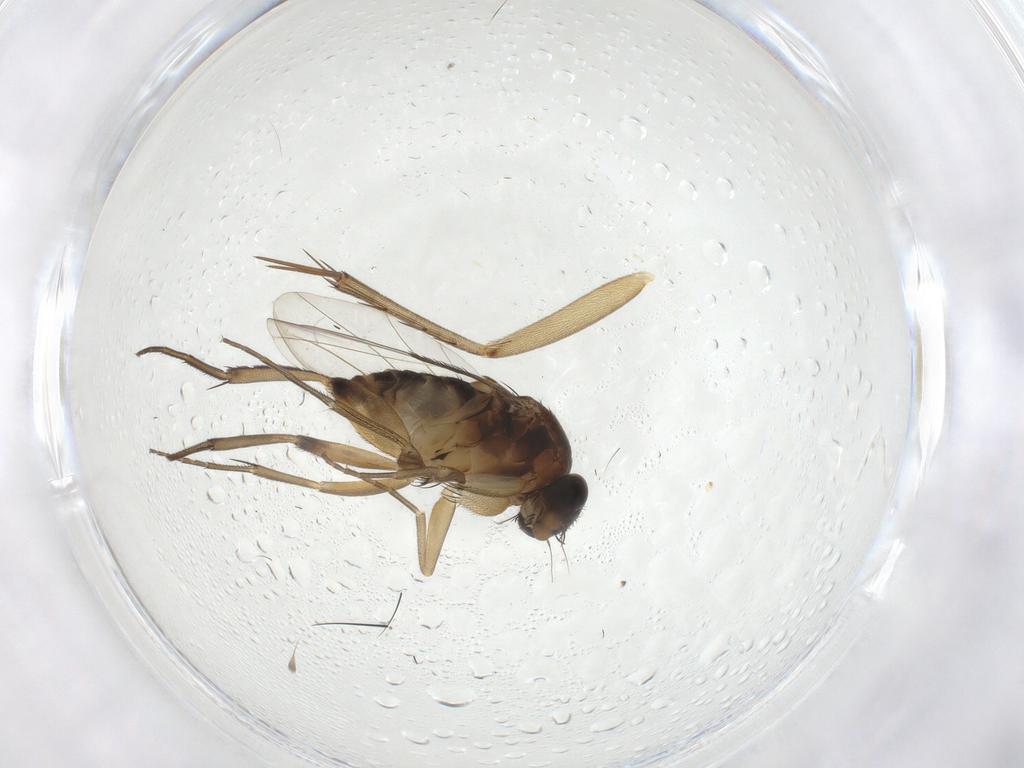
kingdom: Animalia
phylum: Arthropoda
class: Insecta
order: Diptera
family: Phoridae
